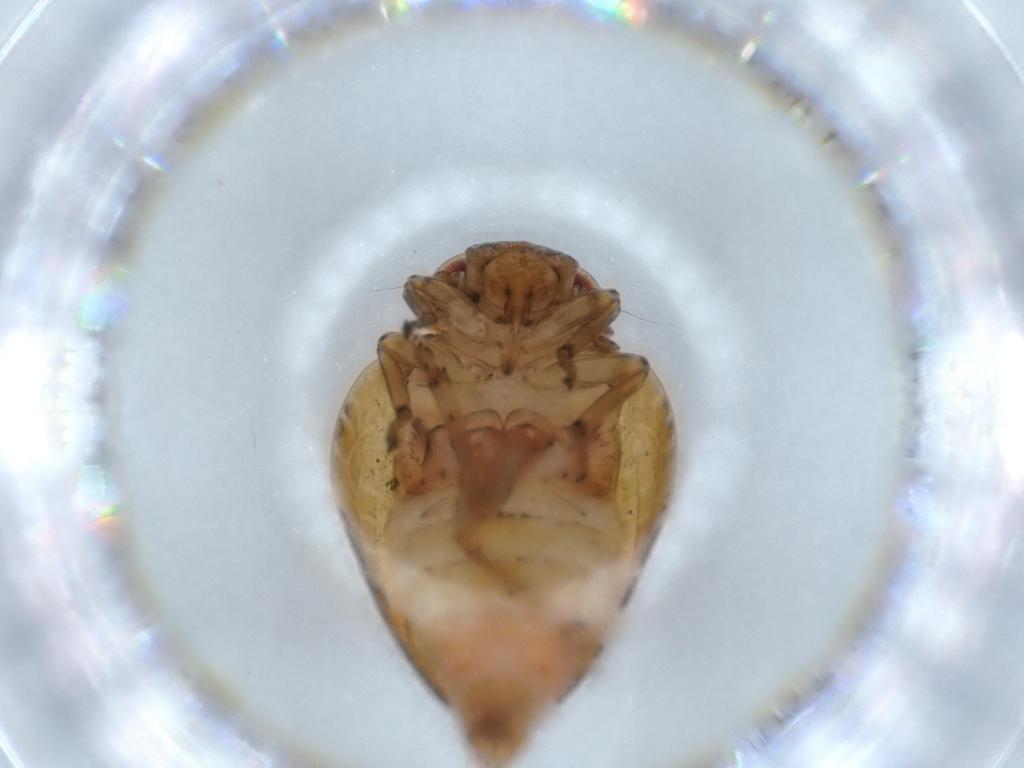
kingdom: Animalia
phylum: Arthropoda
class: Insecta
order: Hemiptera
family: Issidae
